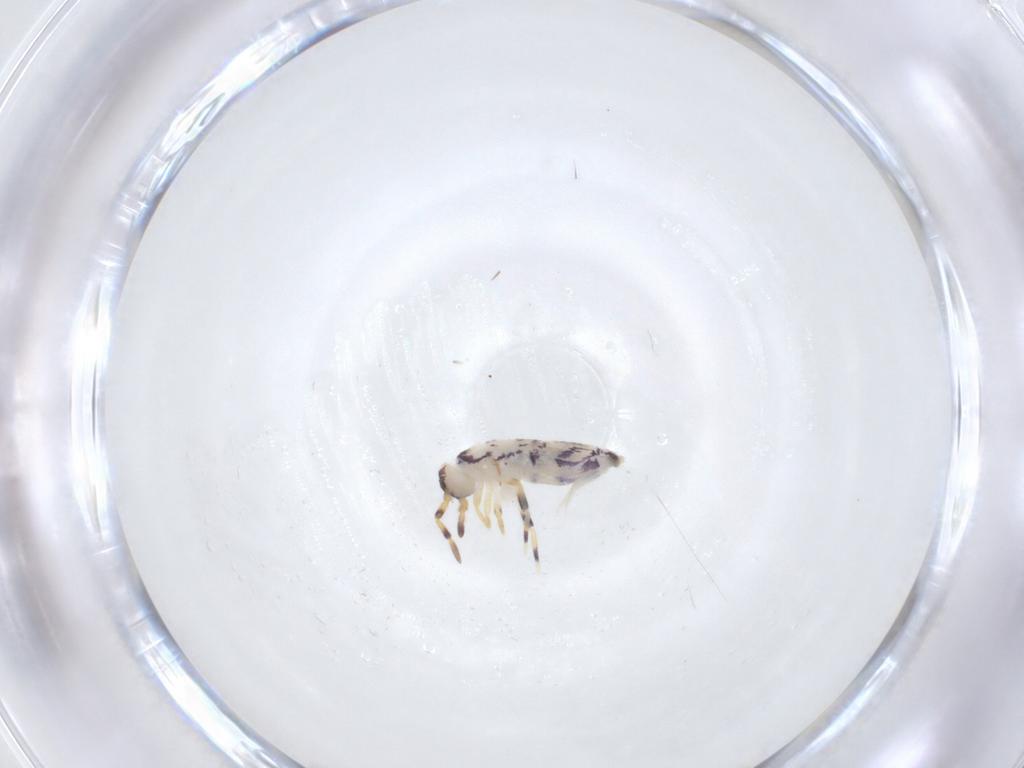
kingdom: Animalia
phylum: Arthropoda
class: Collembola
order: Entomobryomorpha
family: Isotomidae
